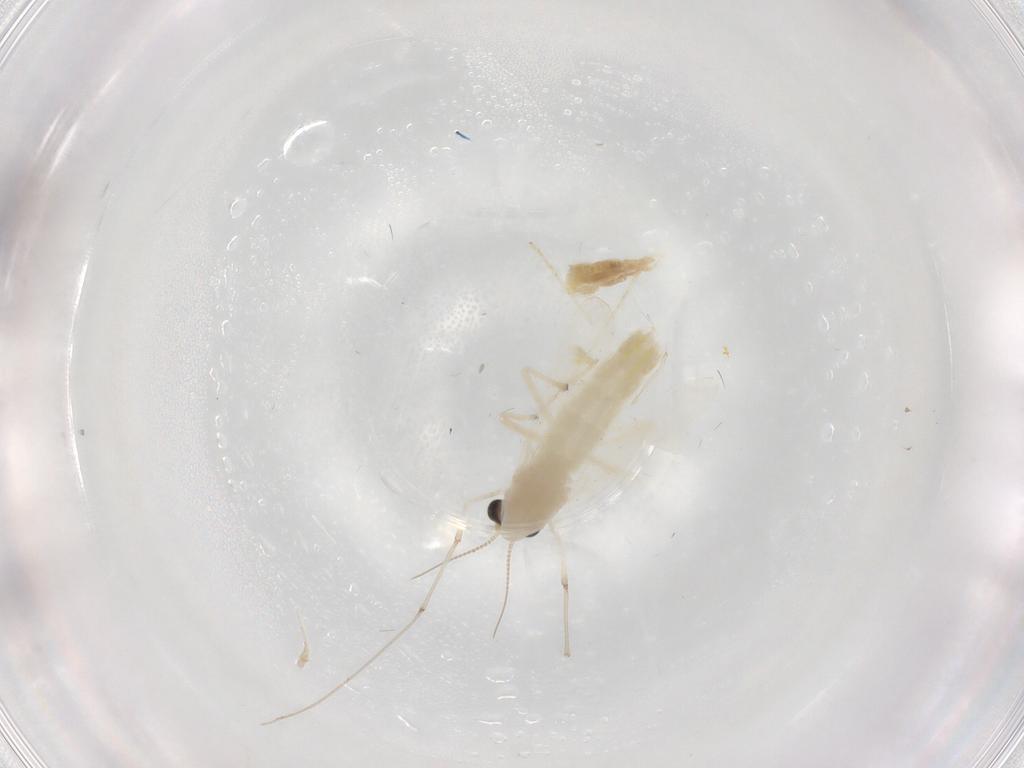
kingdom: Animalia
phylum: Arthropoda
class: Insecta
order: Diptera
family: Chironomidae
